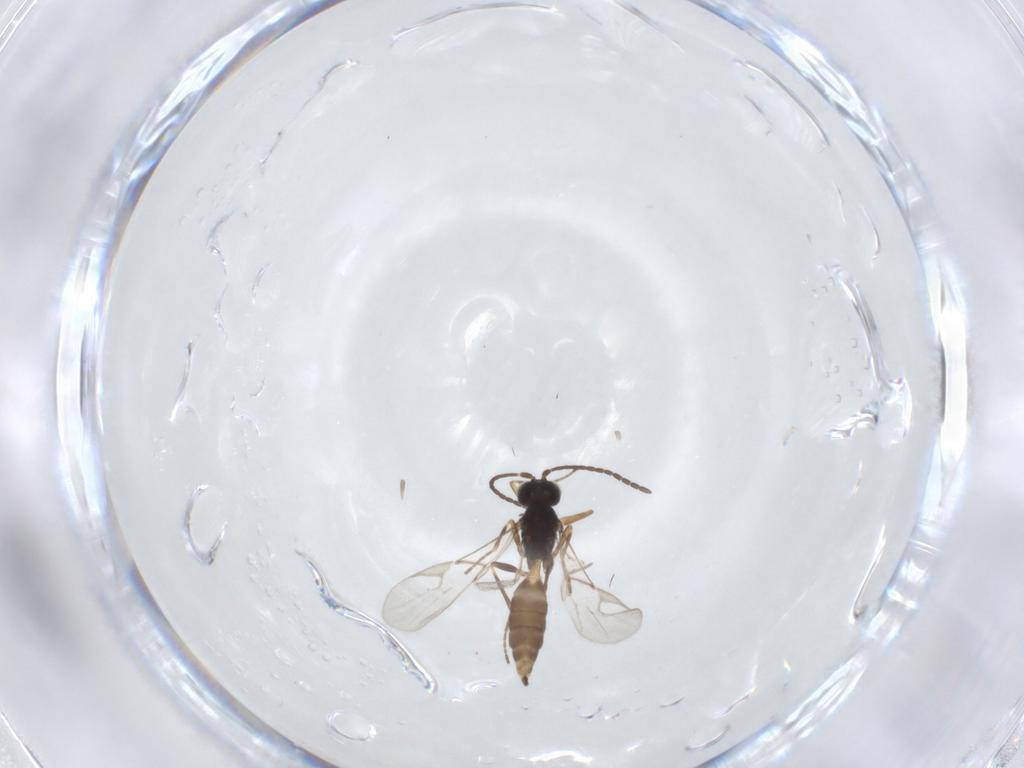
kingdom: Animalia
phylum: Arthropoda
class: Insecta
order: Hymenoptera
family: Braconidae
